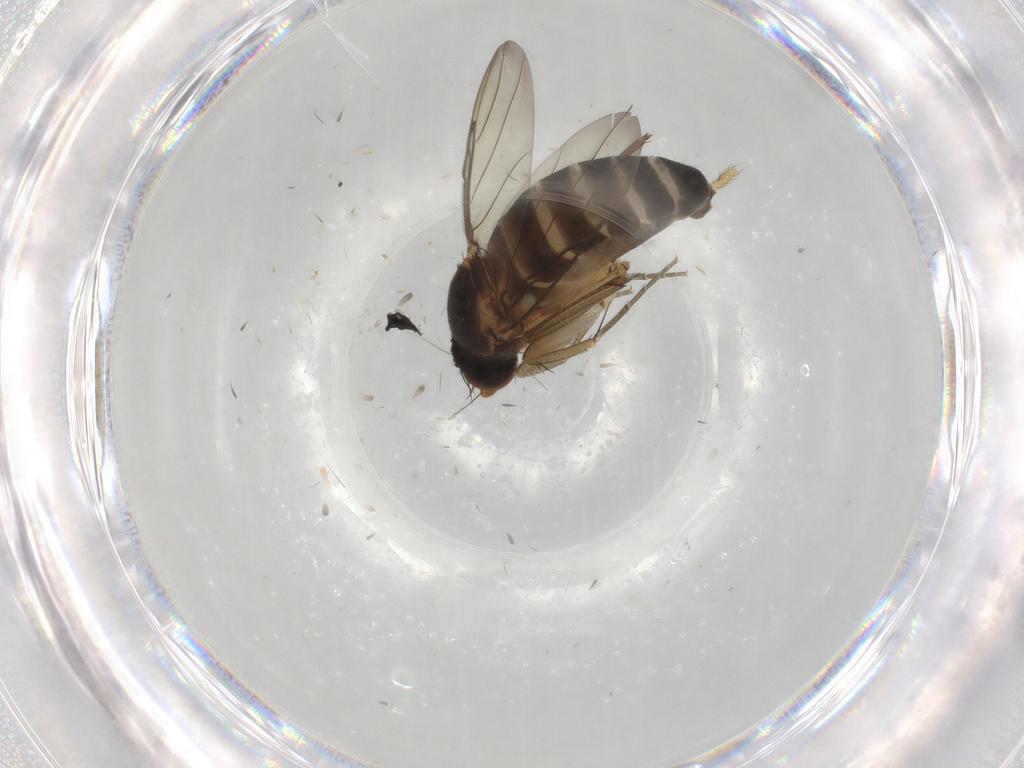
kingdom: Animalia
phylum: Arthropoda
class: Insecta
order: Diptera
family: Phoridae
